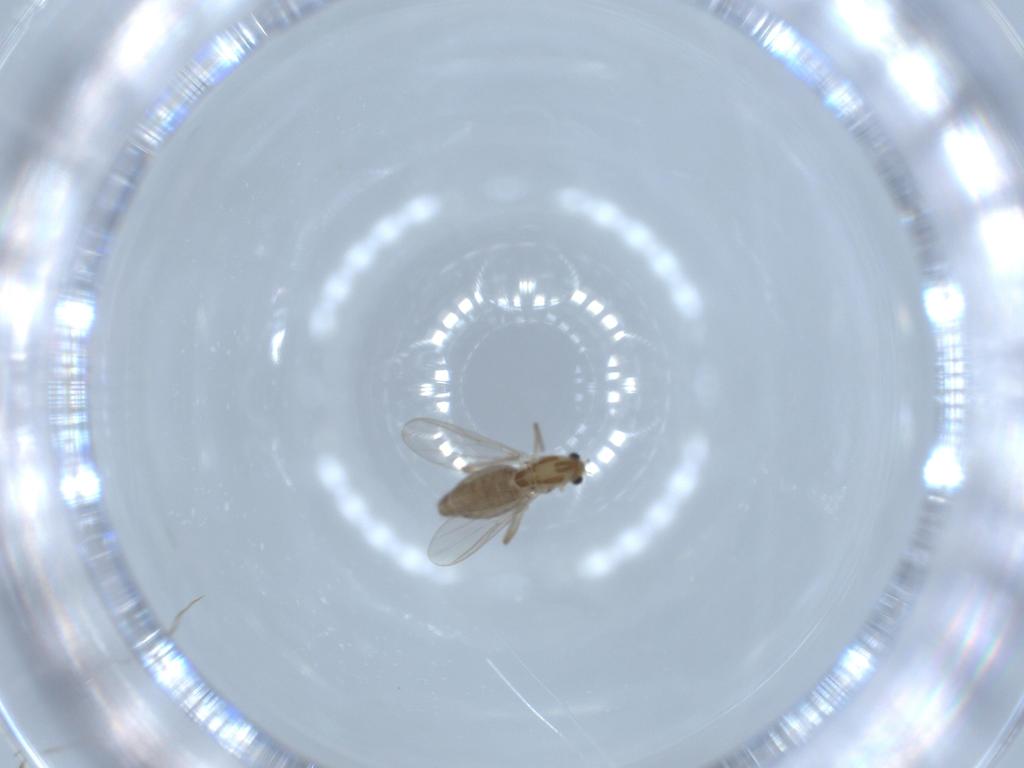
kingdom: Animalia
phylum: Arthropoda
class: Insecta
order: Diptera
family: Chironomidae
